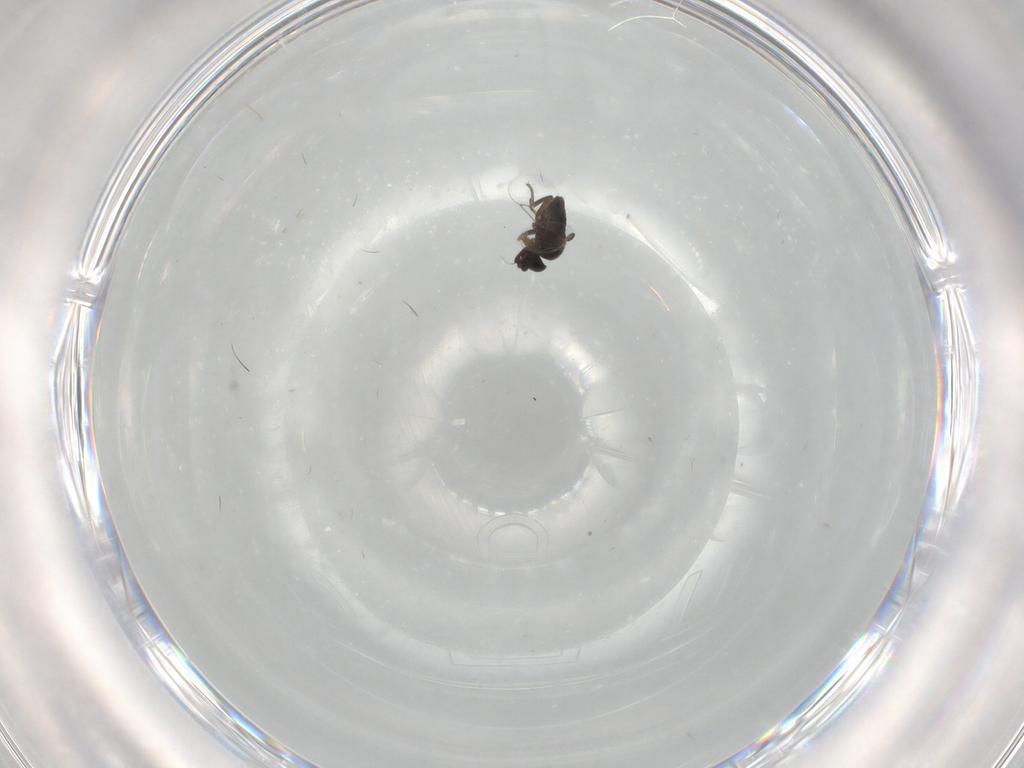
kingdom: Animalia
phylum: Arthropoda
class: Insecta
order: Diptera
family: Phoridae
